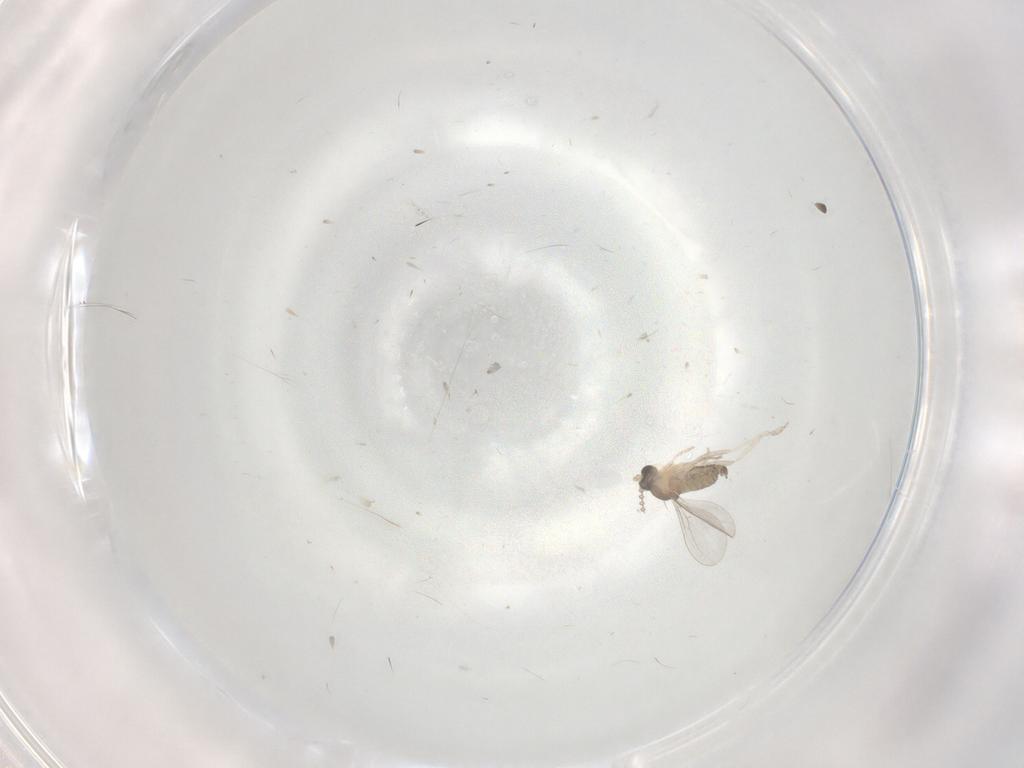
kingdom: Animalia
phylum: Arthropoda
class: Insecta
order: Diptera
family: Cecidomyiidae
